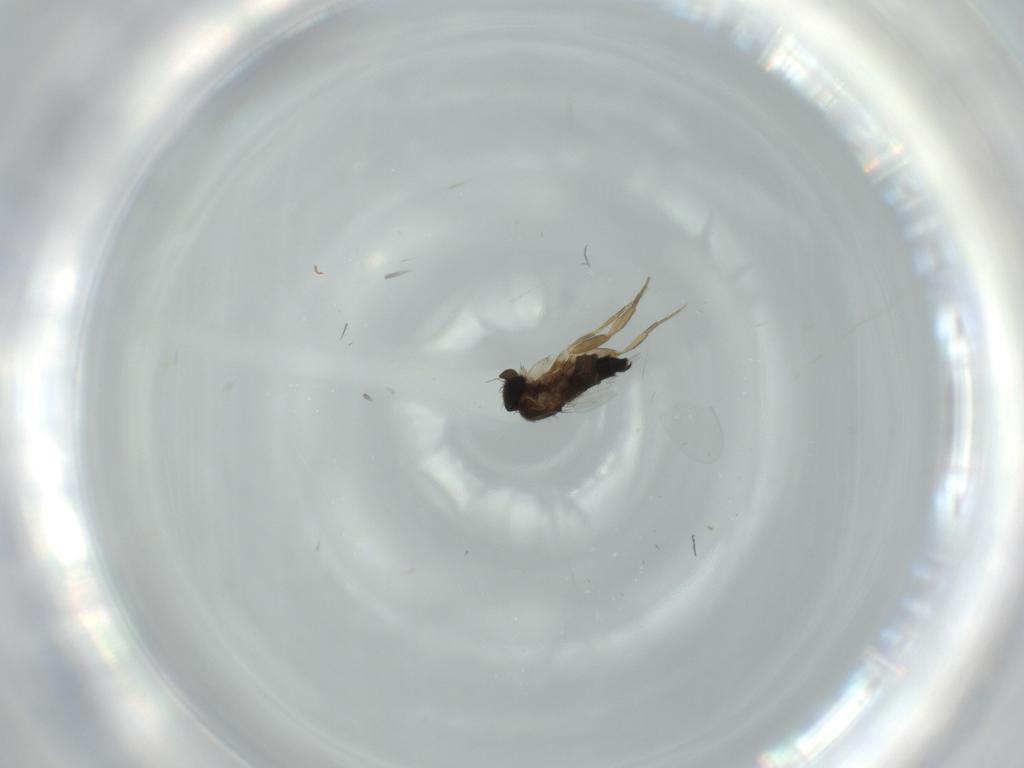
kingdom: Animalia
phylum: Arthropoda
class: Insecta
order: Diptera
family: Phoridae
